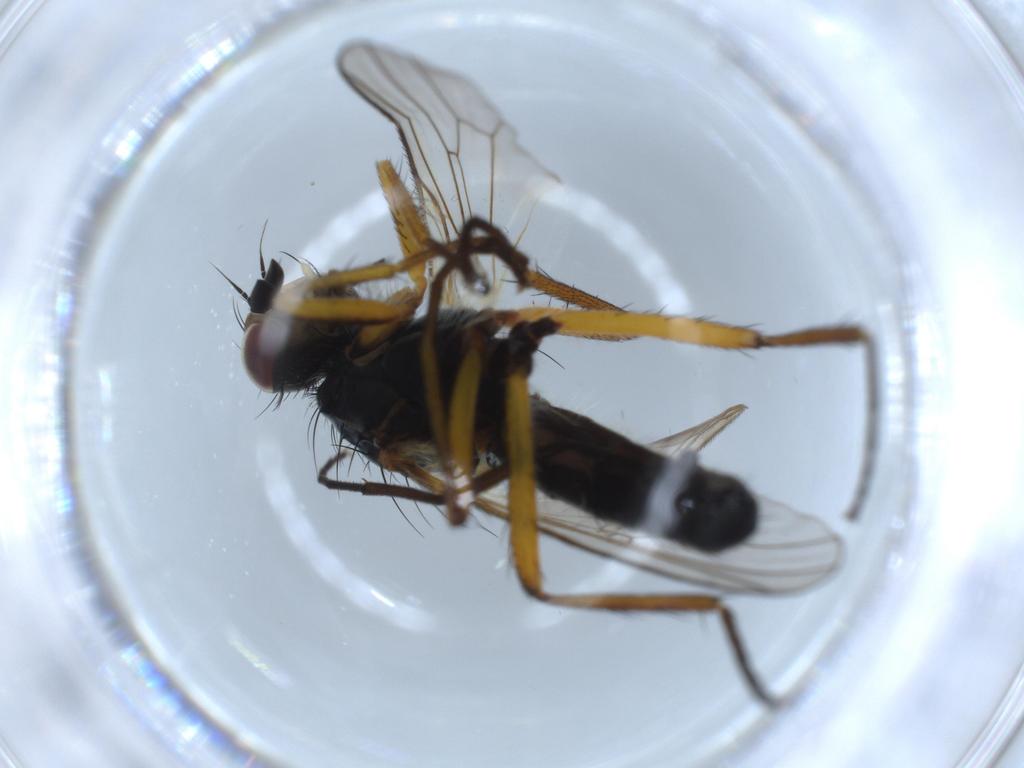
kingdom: Animalia
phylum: Arthropoda
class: Insecta
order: Diptera
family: Scathophagidae
